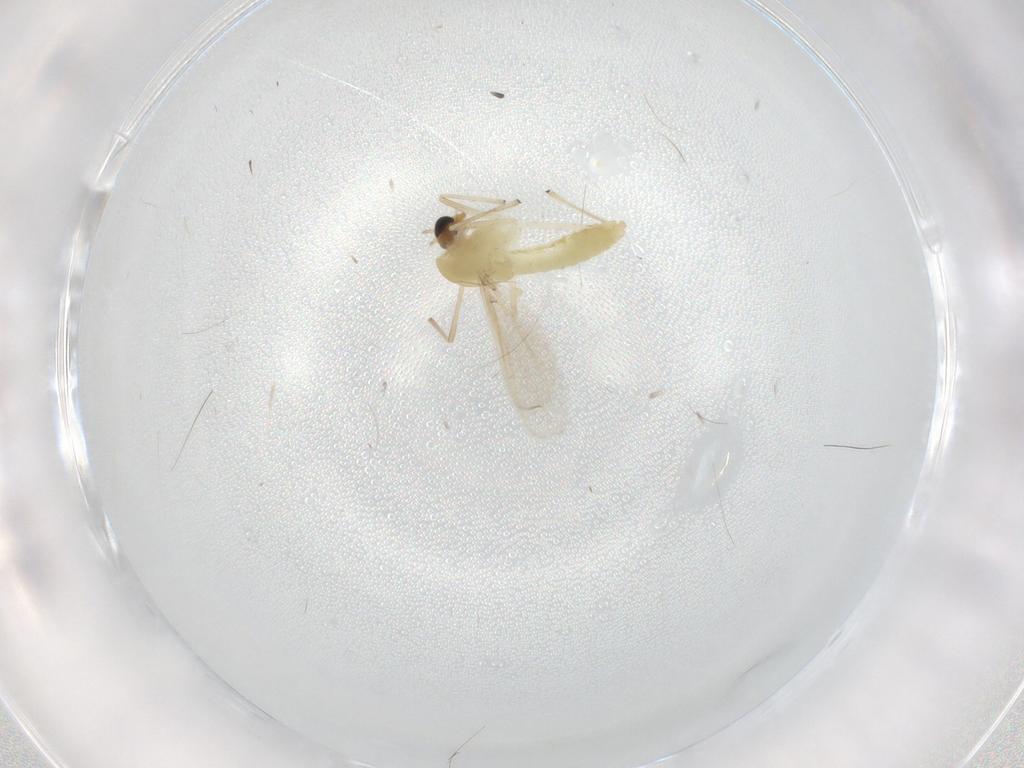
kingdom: Animalia
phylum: Arthropoda
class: Insecta
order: Diptera
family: Chironomidae
